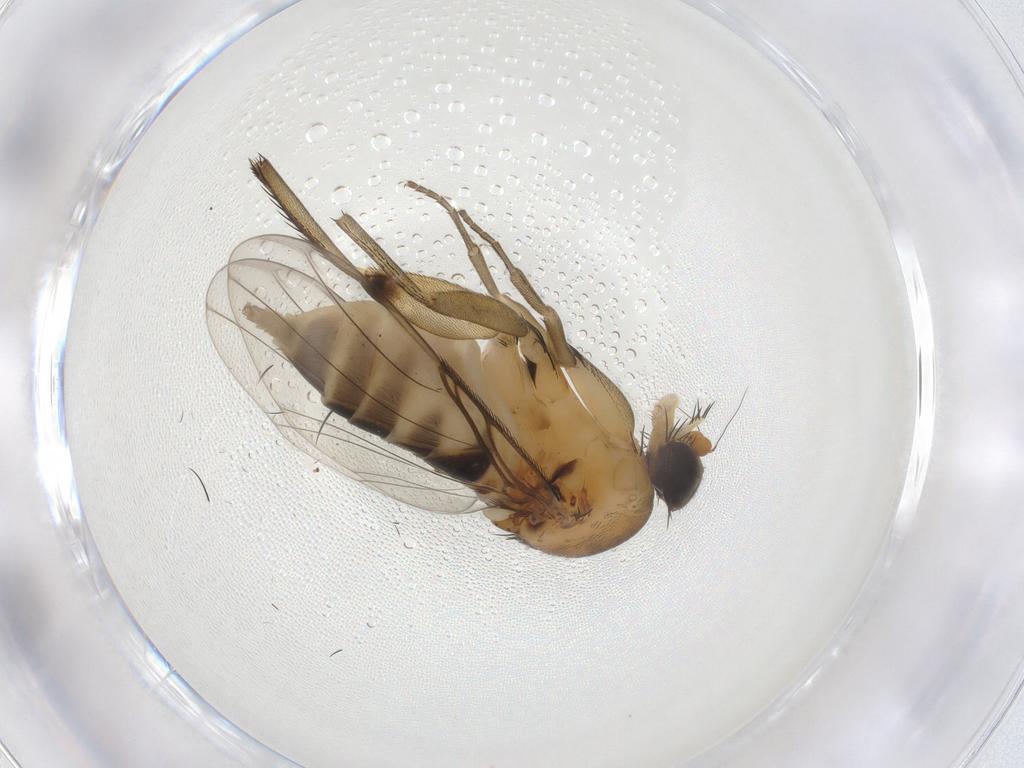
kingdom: Animalia
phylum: Arthropoda
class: Insecta
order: Diptera
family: Phoridae
